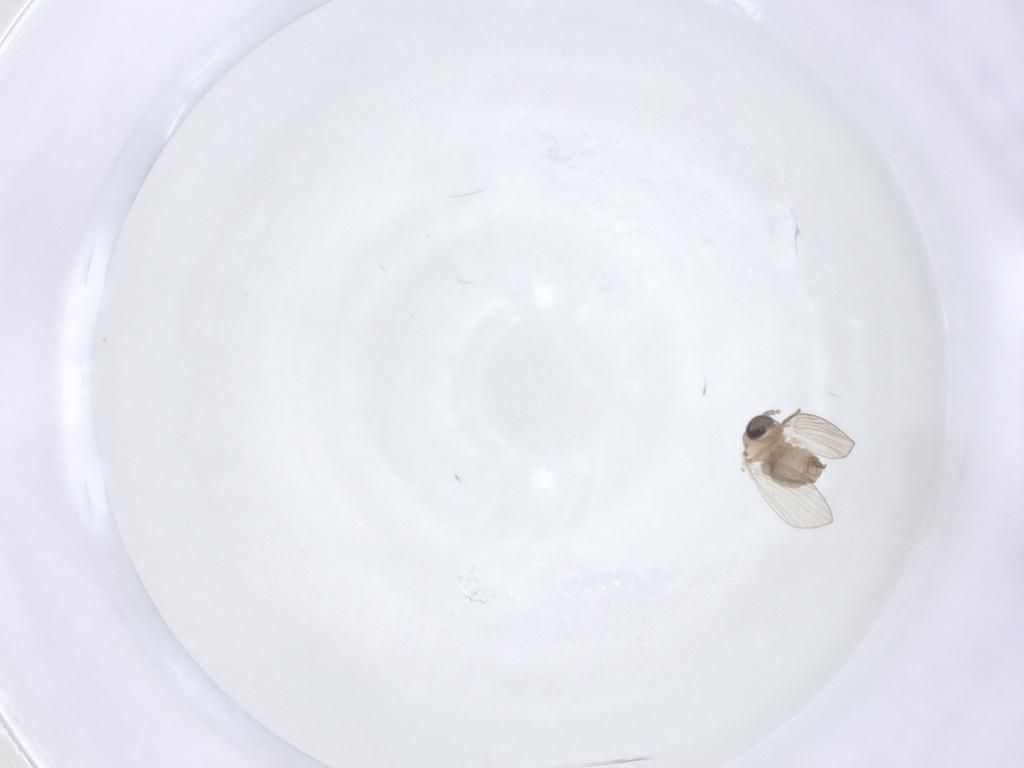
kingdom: Animalia
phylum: Arthropoda
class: Insecta
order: Diptera
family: Psychodidae
